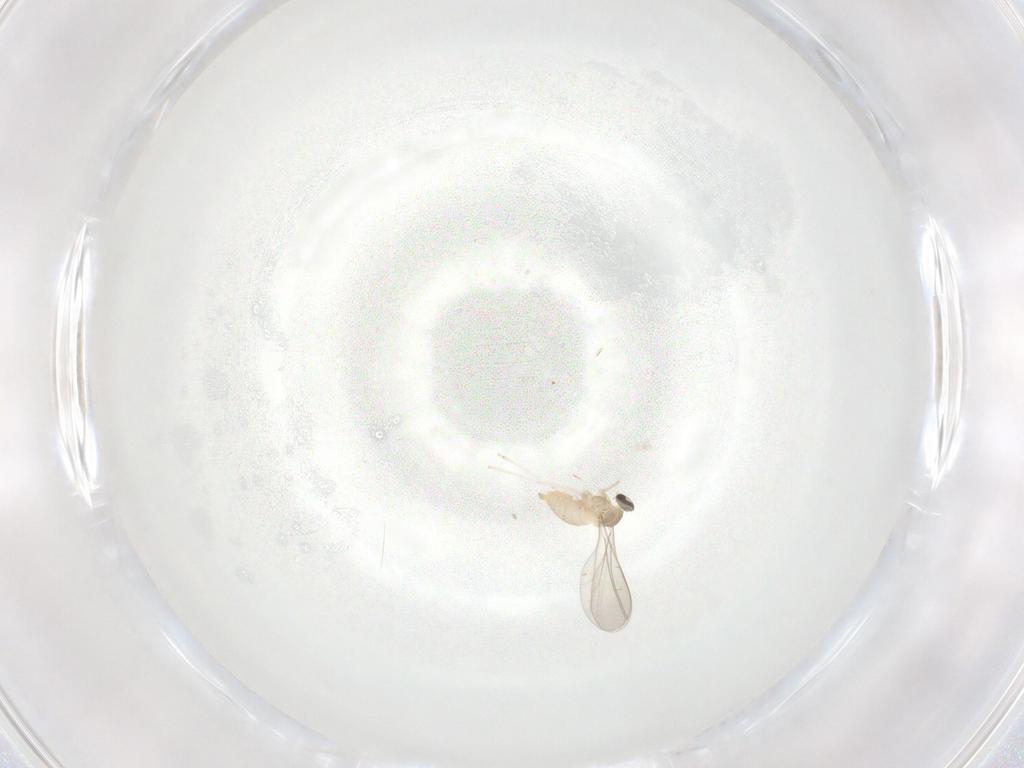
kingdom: Animalia
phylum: Arthropoda
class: Insecta
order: Diptera
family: Cecidomyiidae
